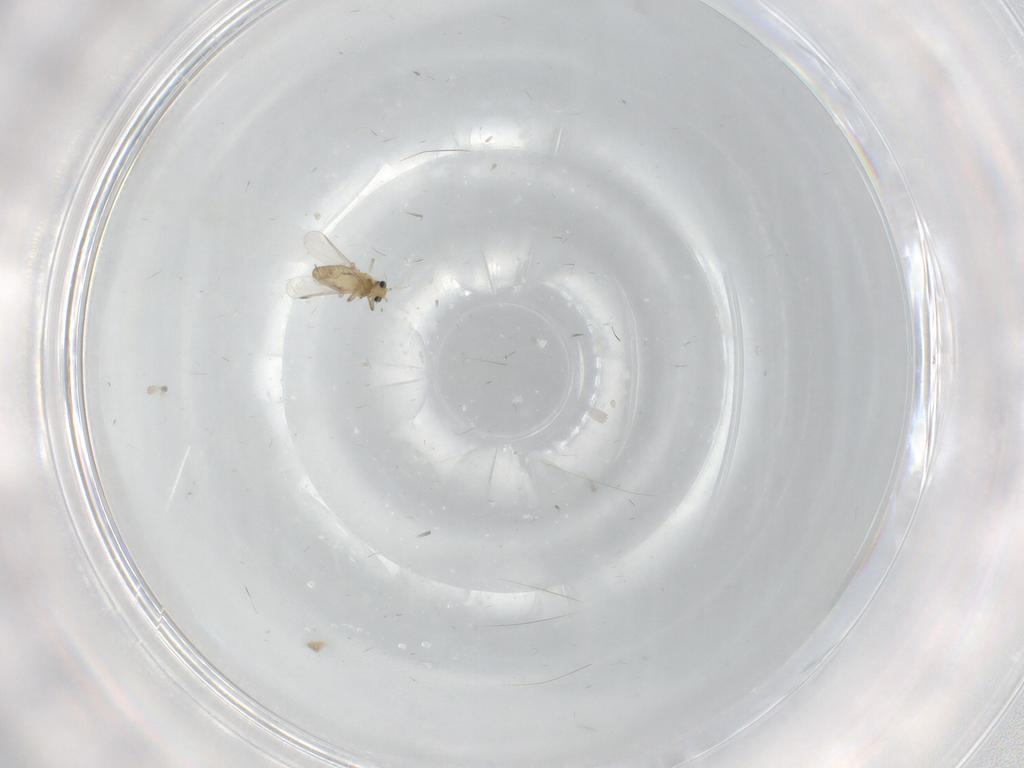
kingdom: Animalia
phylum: Arthropoda
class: Insecta
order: Diptera
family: Chironomidae
